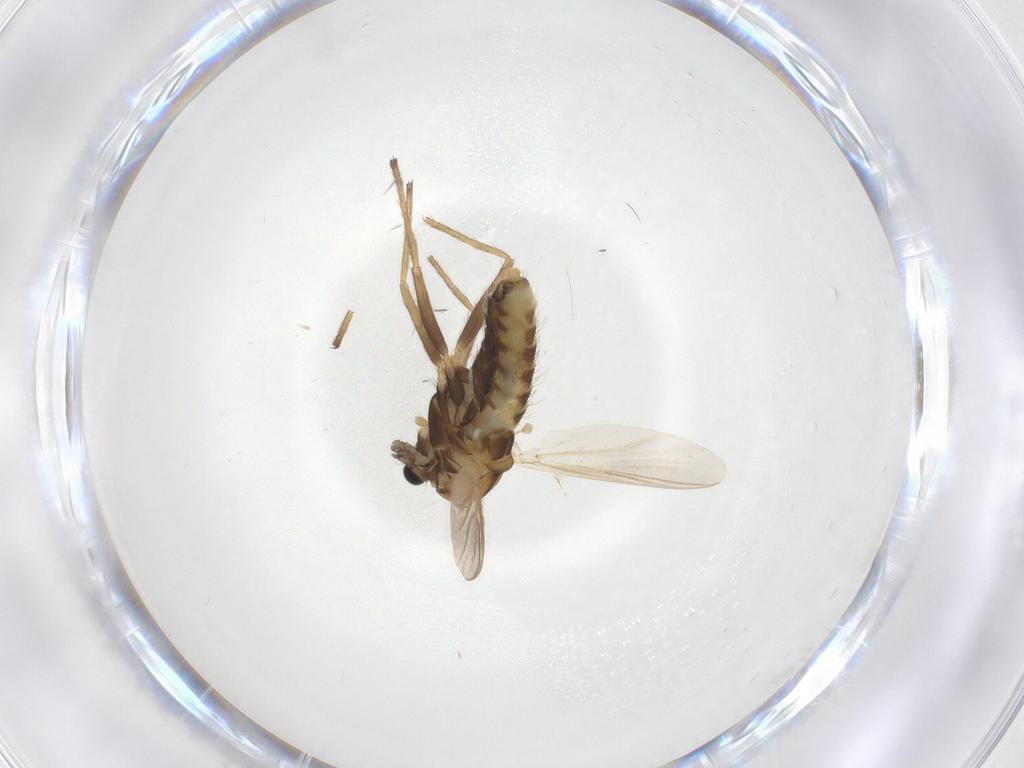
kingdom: Animalia
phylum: Arthropoda
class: Insecta
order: Diptera
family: Chironomidae
